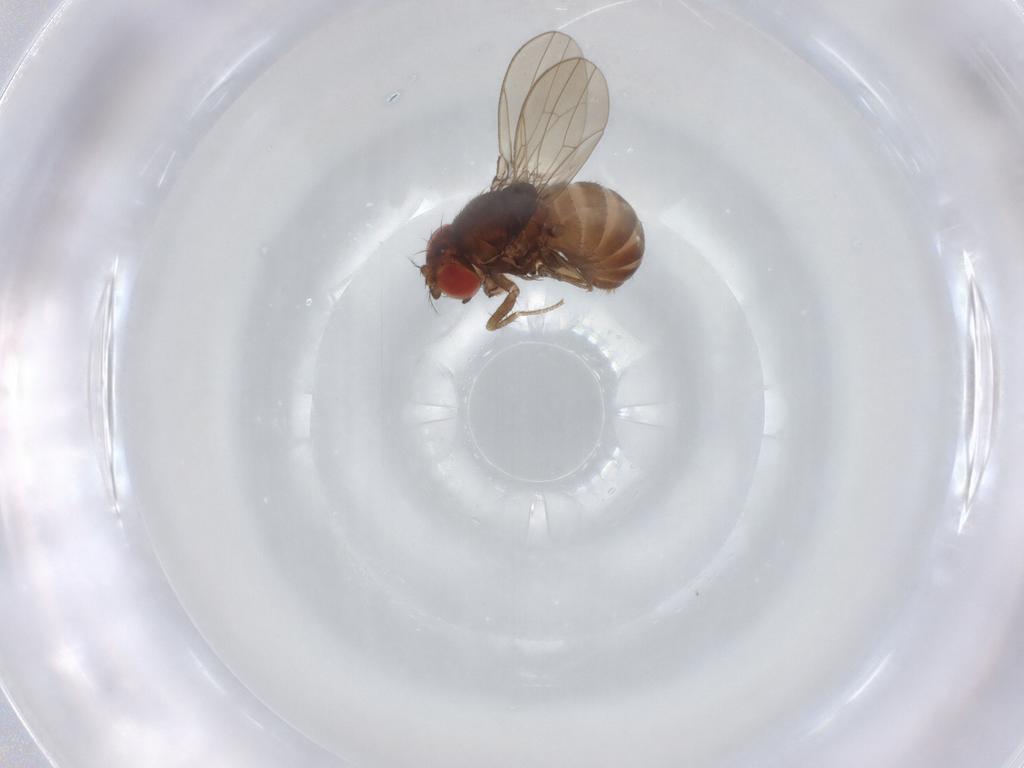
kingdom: Animalia
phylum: Arthropoda
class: Insecta
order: Diptera
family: Drosophilidae
